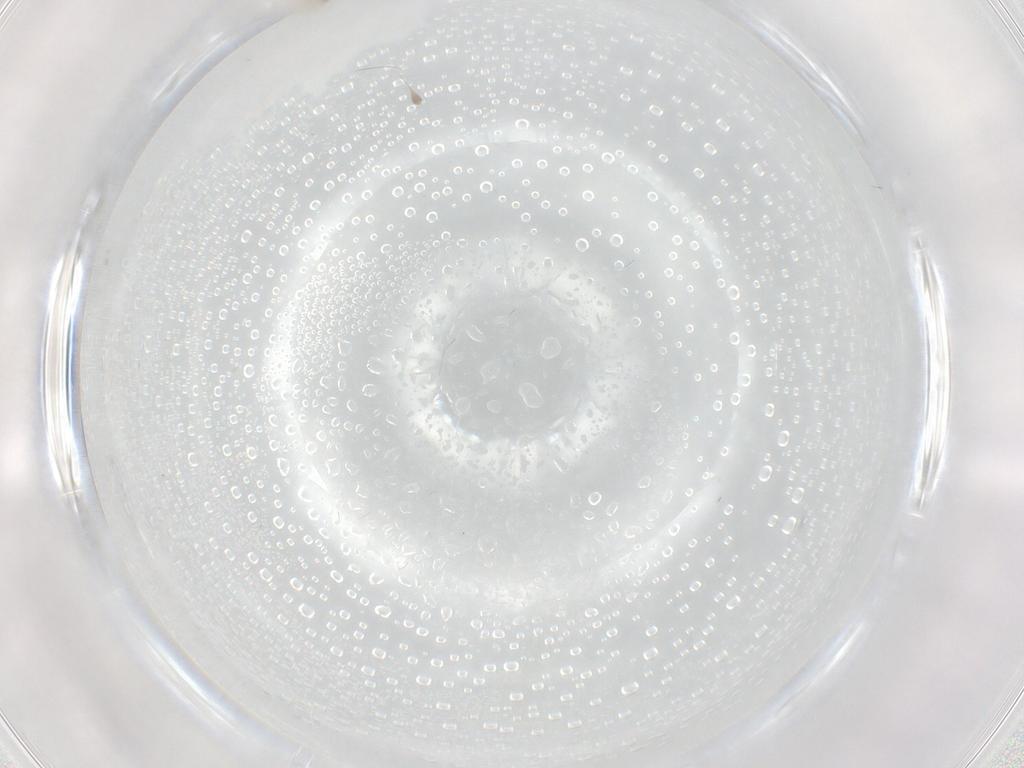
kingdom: Animalia
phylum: Arthropoda
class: Insecta
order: Diptera
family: Cecidomyiidae
